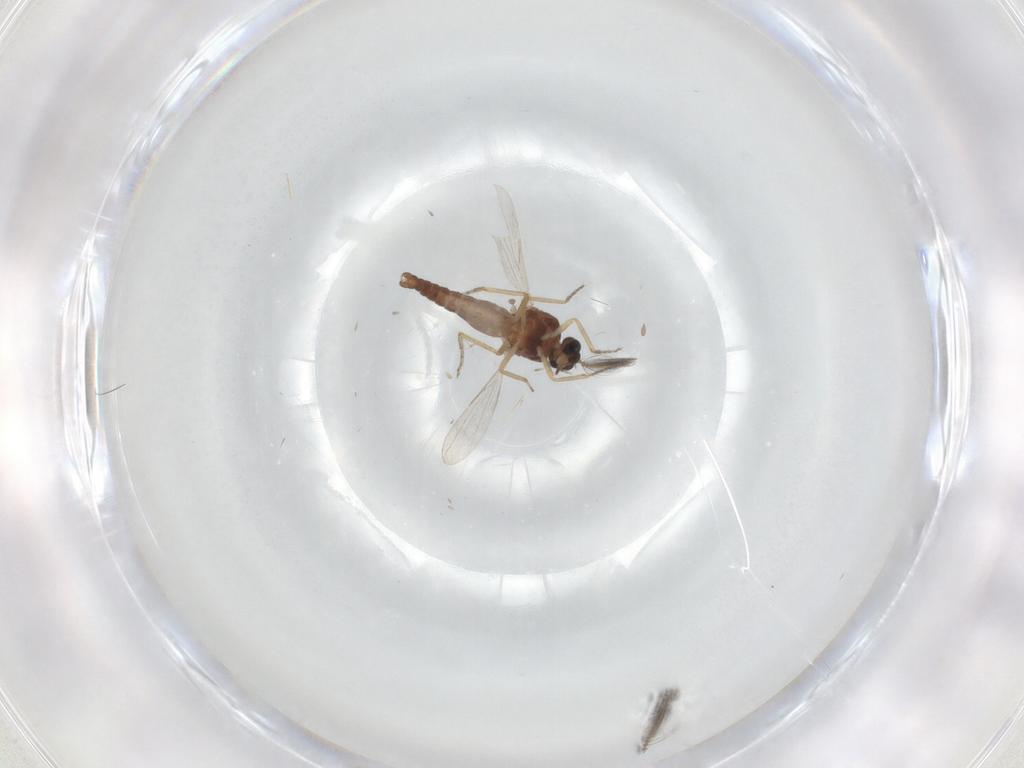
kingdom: Animalia
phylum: Arthropoda
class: Insecta
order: Diptera
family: Ceratopogonidae
